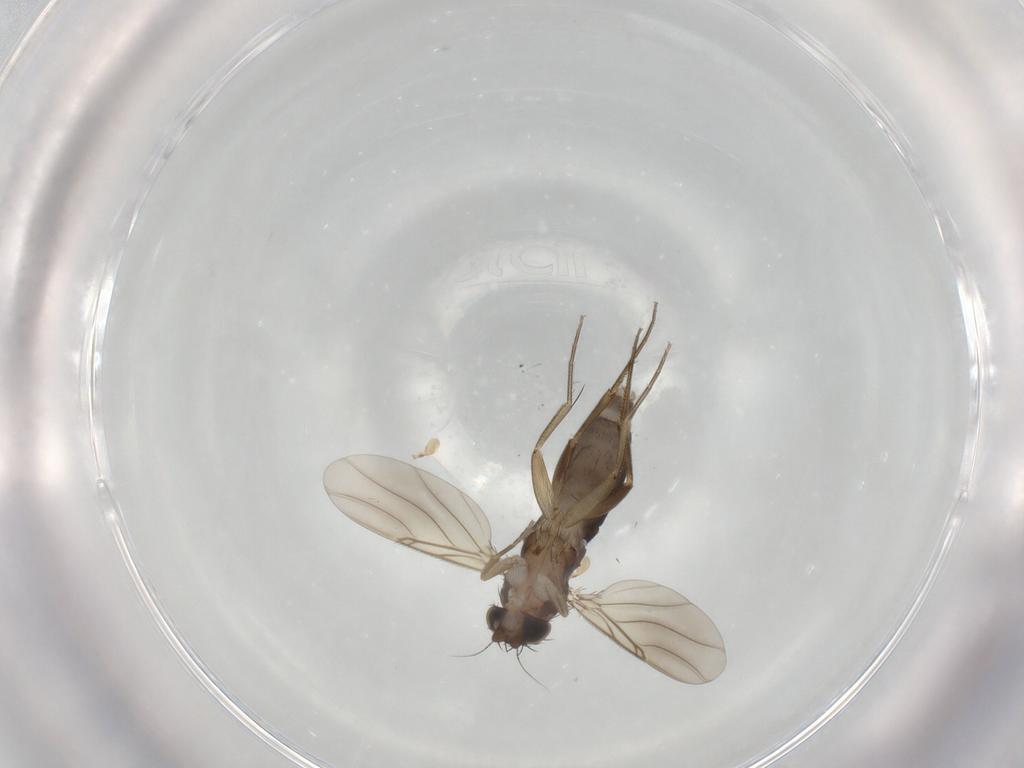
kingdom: Animalia
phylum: Arthropoda
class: Insecta
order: Diptera
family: Phoridae
